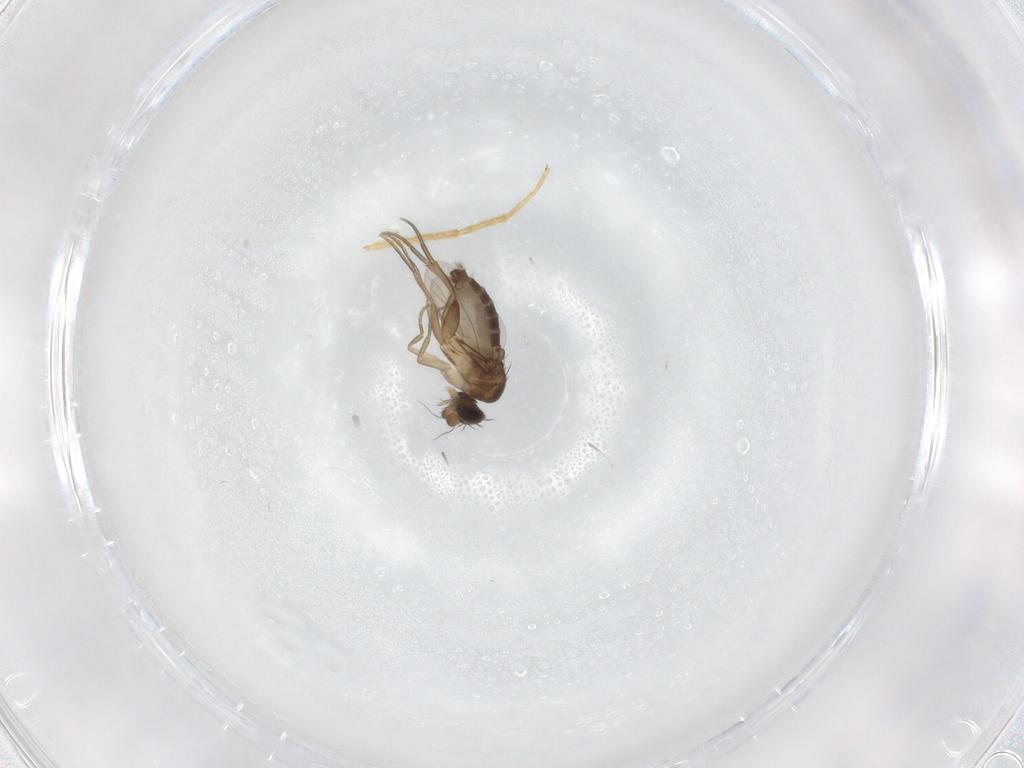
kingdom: Animalia
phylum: Arthropoda
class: Insecta
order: Diptera
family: Phoridae
